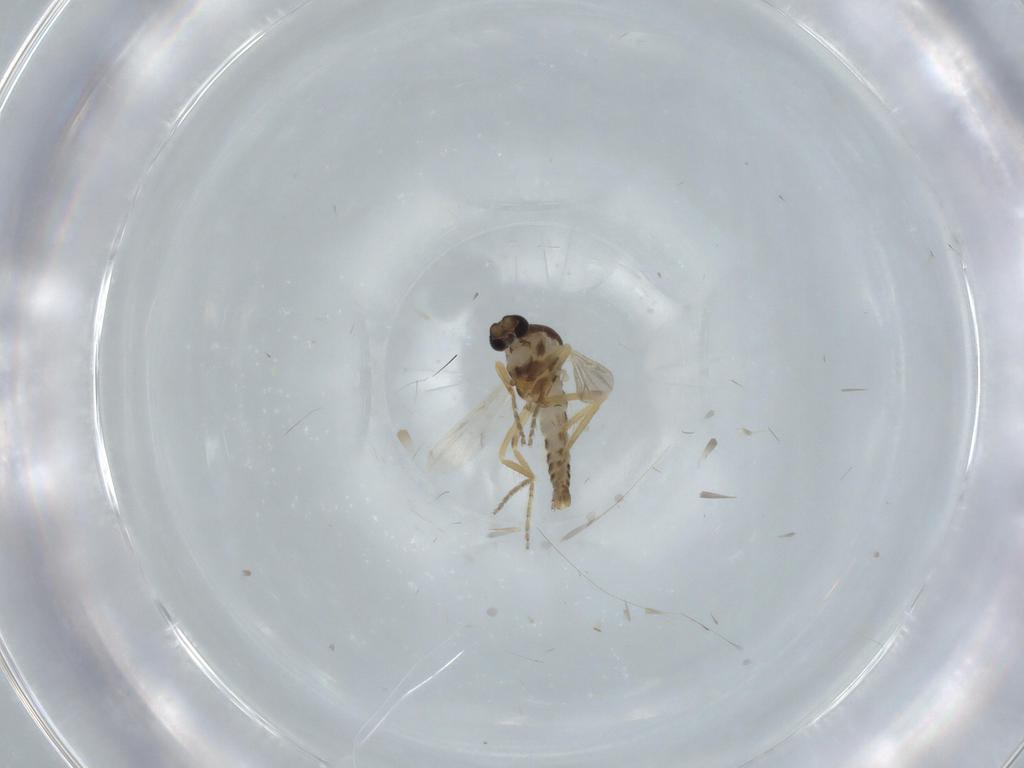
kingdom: Animalia
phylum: Arthropoda
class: Insecta
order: Diptera
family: Ceratopogonidae
